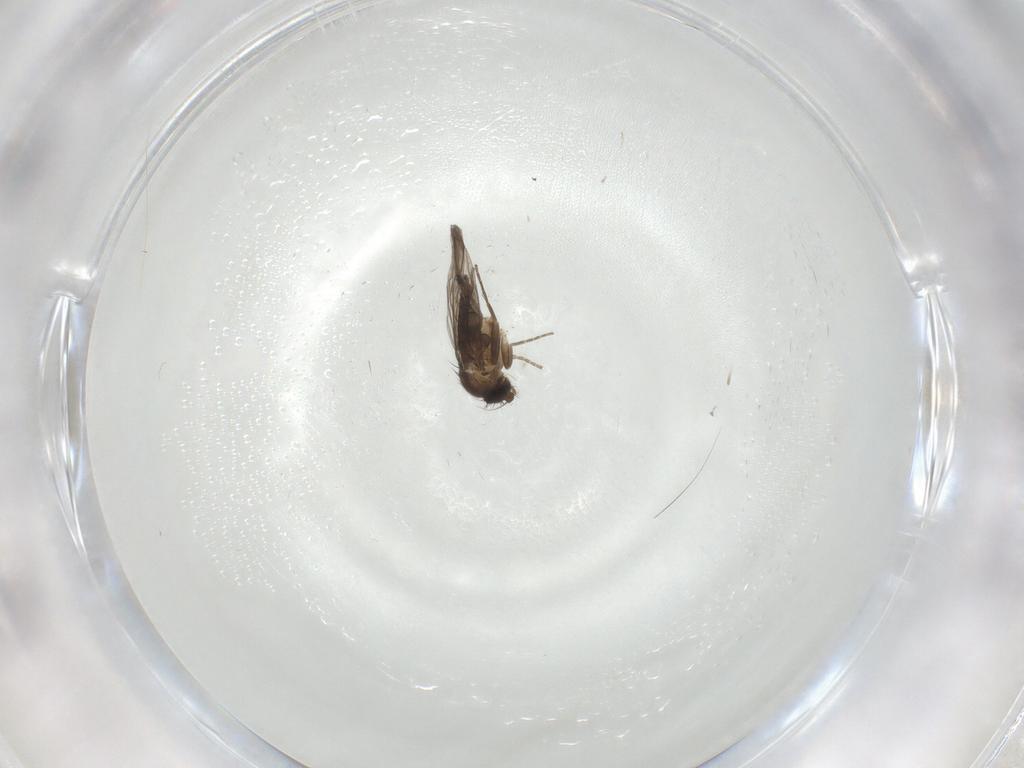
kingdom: Animalia
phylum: Arthropoda
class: Insecta
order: Diptera
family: Phoridae
